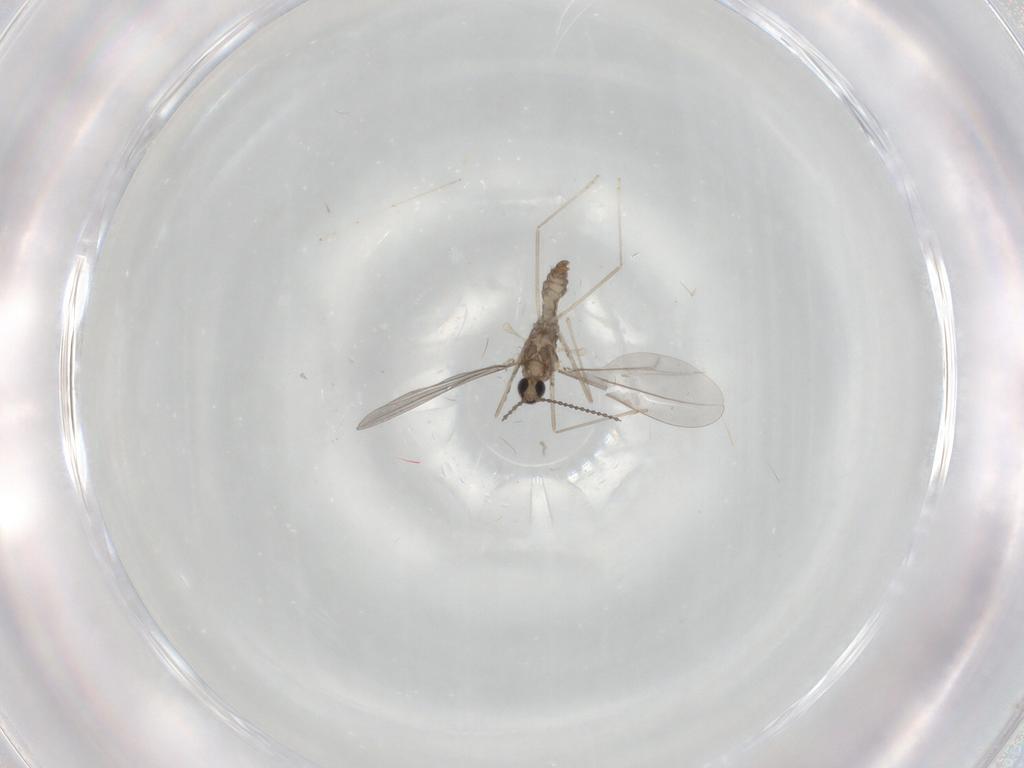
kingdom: Animalia
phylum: Arthropoda
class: Insecta
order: Diptera
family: Cecidomyiidae
